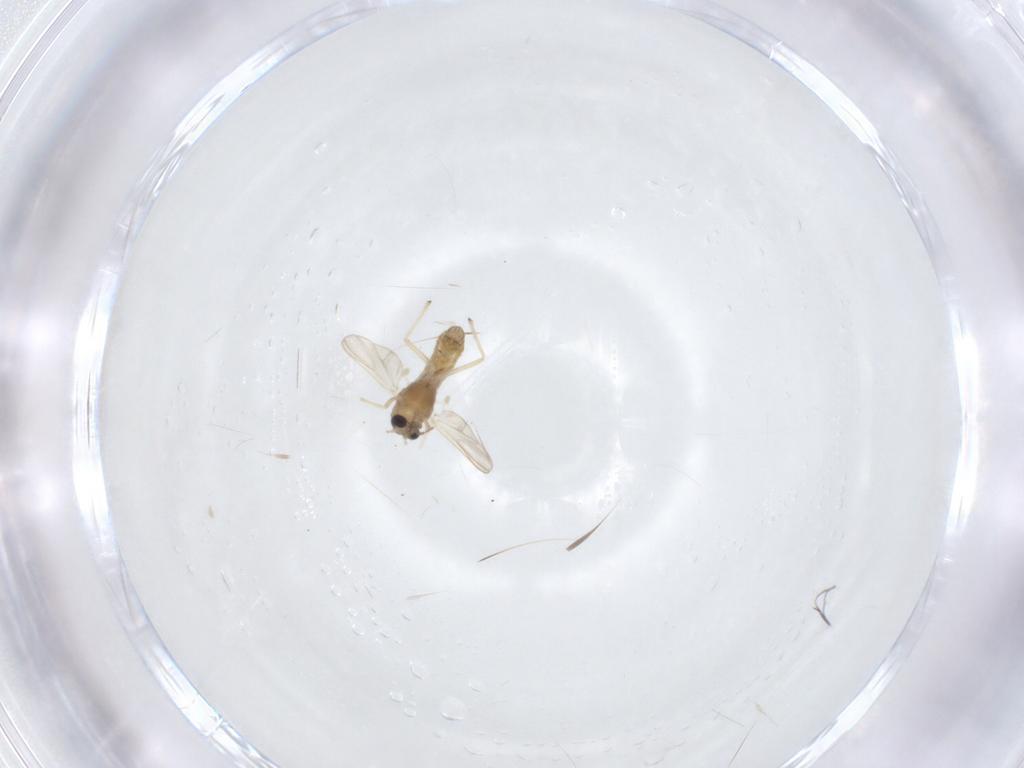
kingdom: Animalia
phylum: Arthropoda
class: Insecta
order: Diptera
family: Chironomidae
